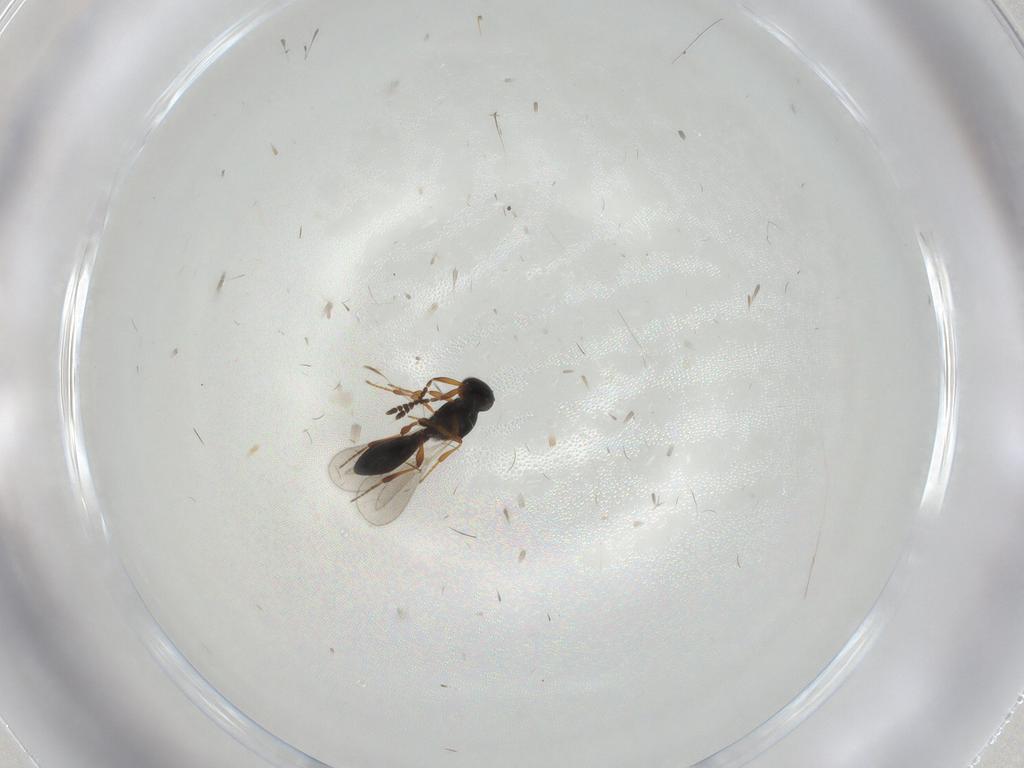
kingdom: Animalia
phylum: Arthropoda
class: Insecta
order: Hymenoptera
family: Platygastridae
